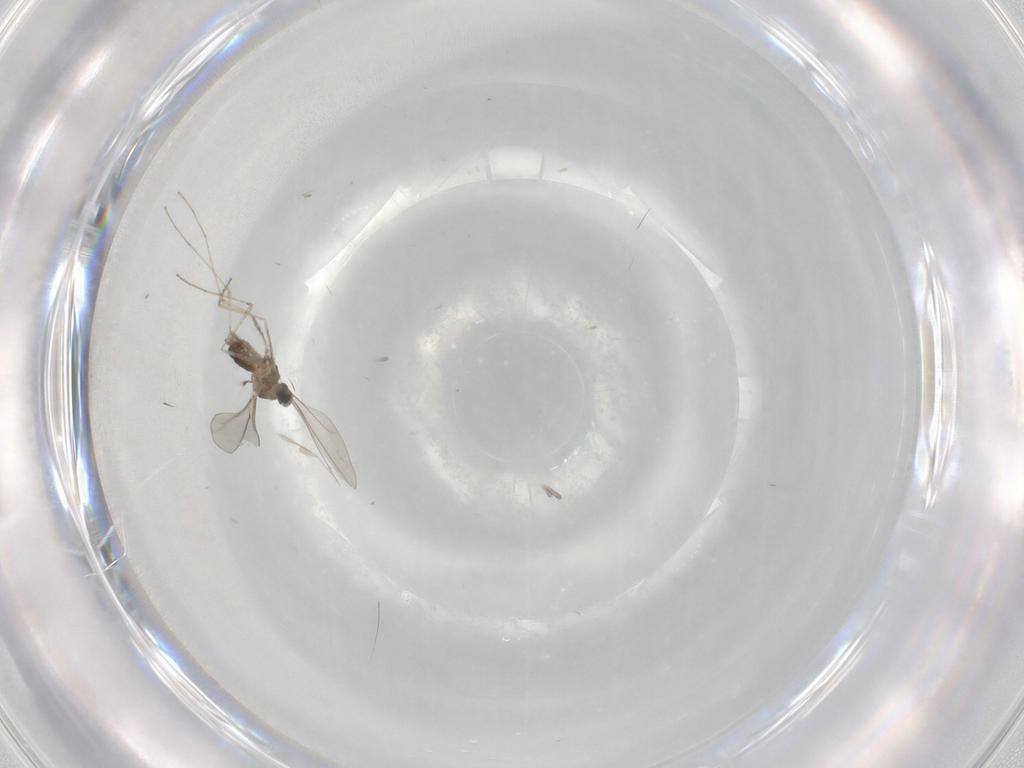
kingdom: Animalia
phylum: Arthropoda
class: Insecta
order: Diptera
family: Cecidomyiidae
